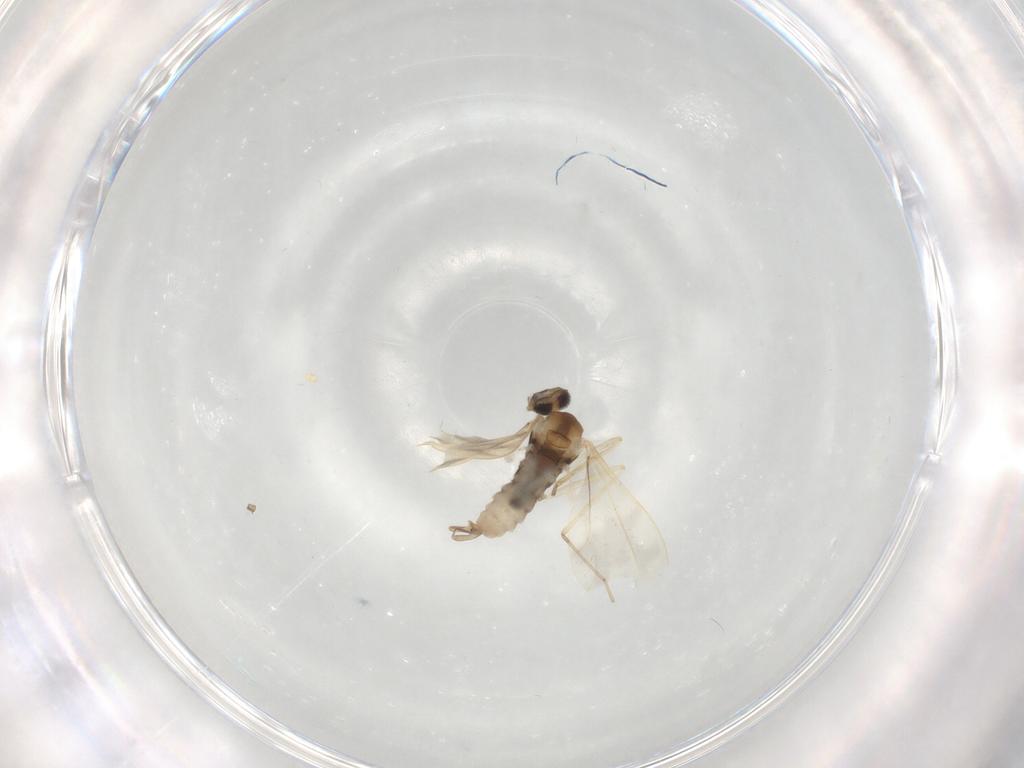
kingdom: Animalia
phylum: Arthropoda
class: Insecta
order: Diptera
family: Cecidomyiidae
